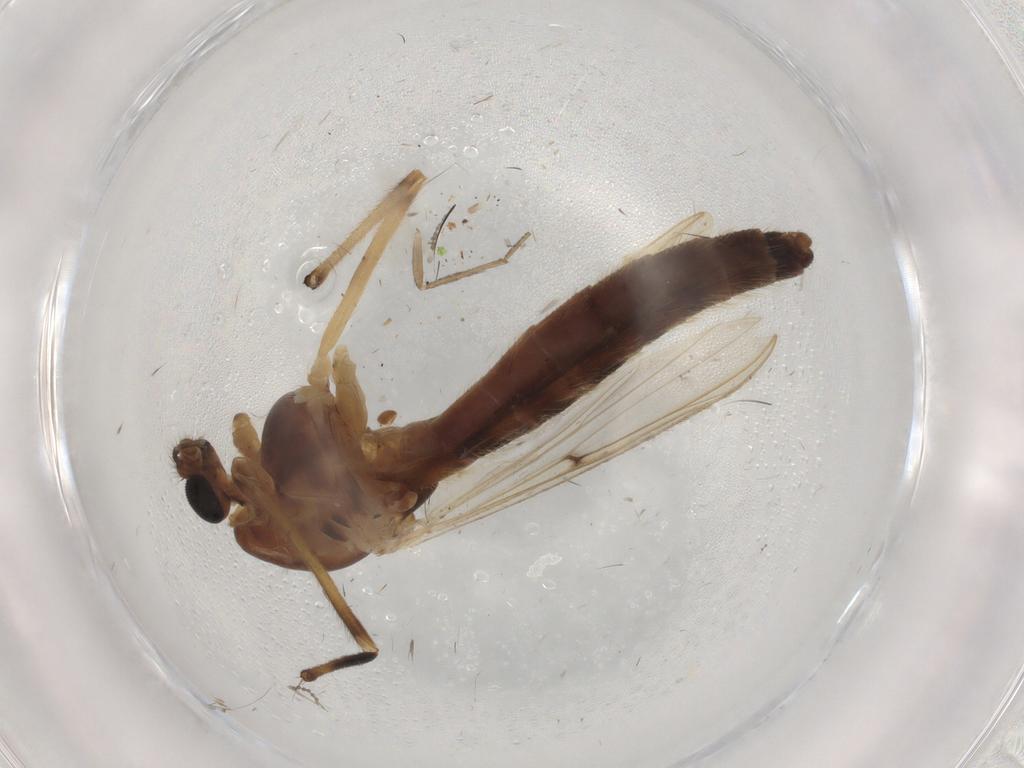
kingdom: Animalia
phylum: Arthropoda
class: Insecta
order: Diptera
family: Chironomidae
